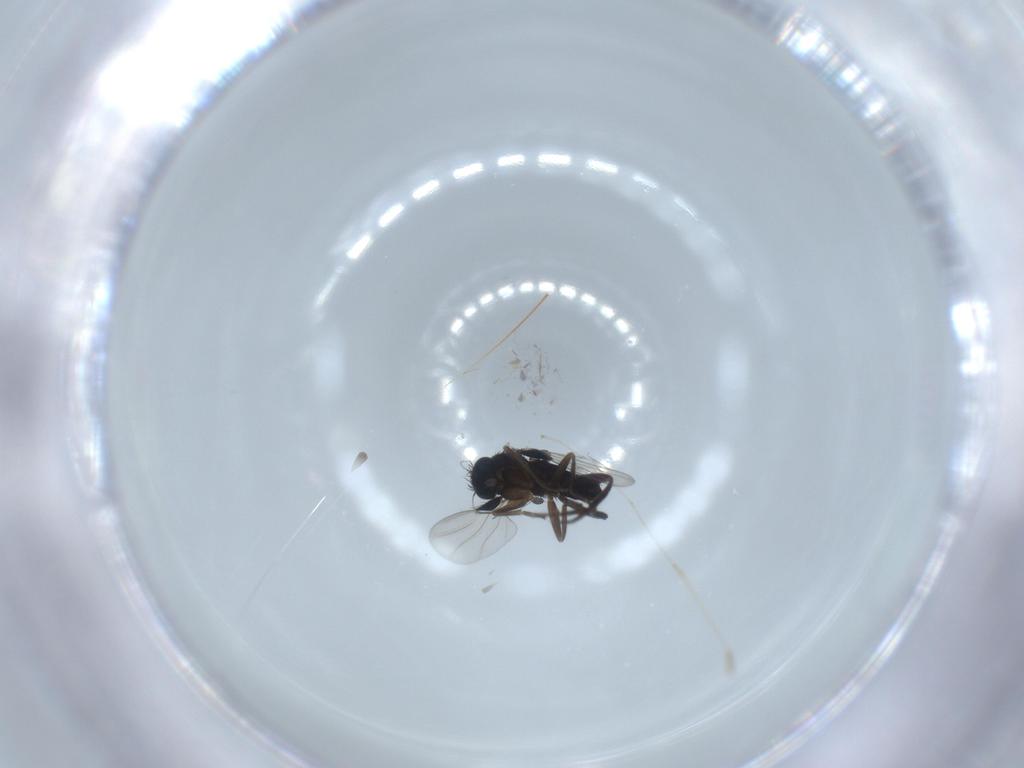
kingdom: Animalia
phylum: Arthropoda
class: Insecta
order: Diptera
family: Phoridae
